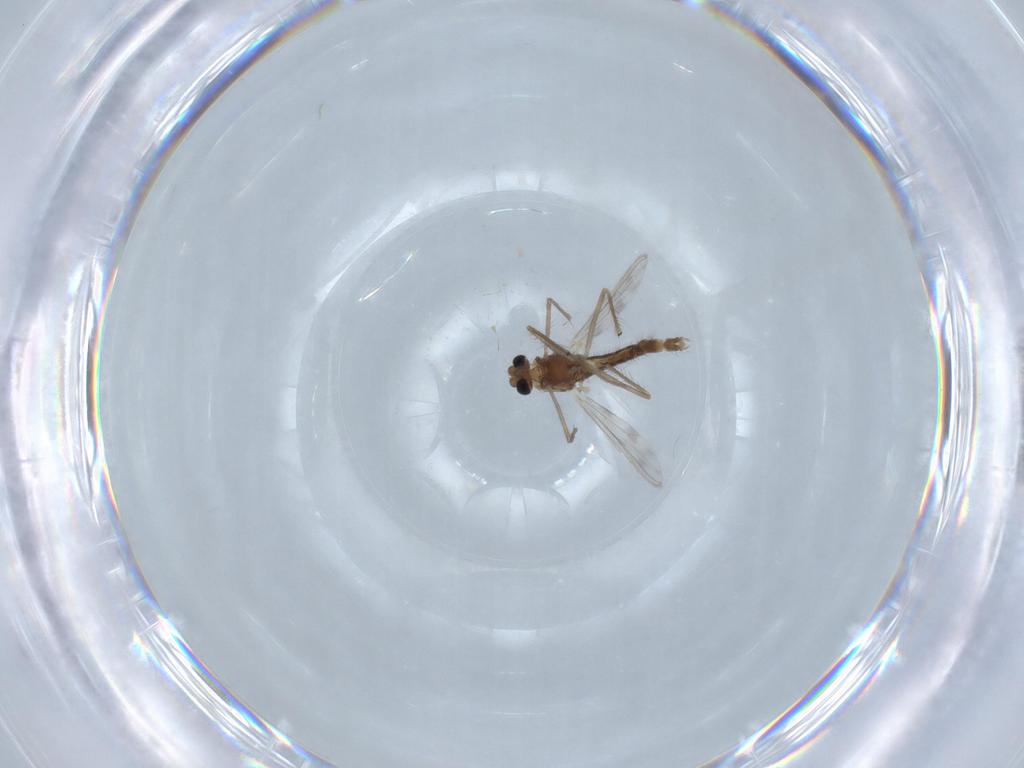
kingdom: Animalia
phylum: Arthropoda
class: Insecta
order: Diptera
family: Chironomidae
